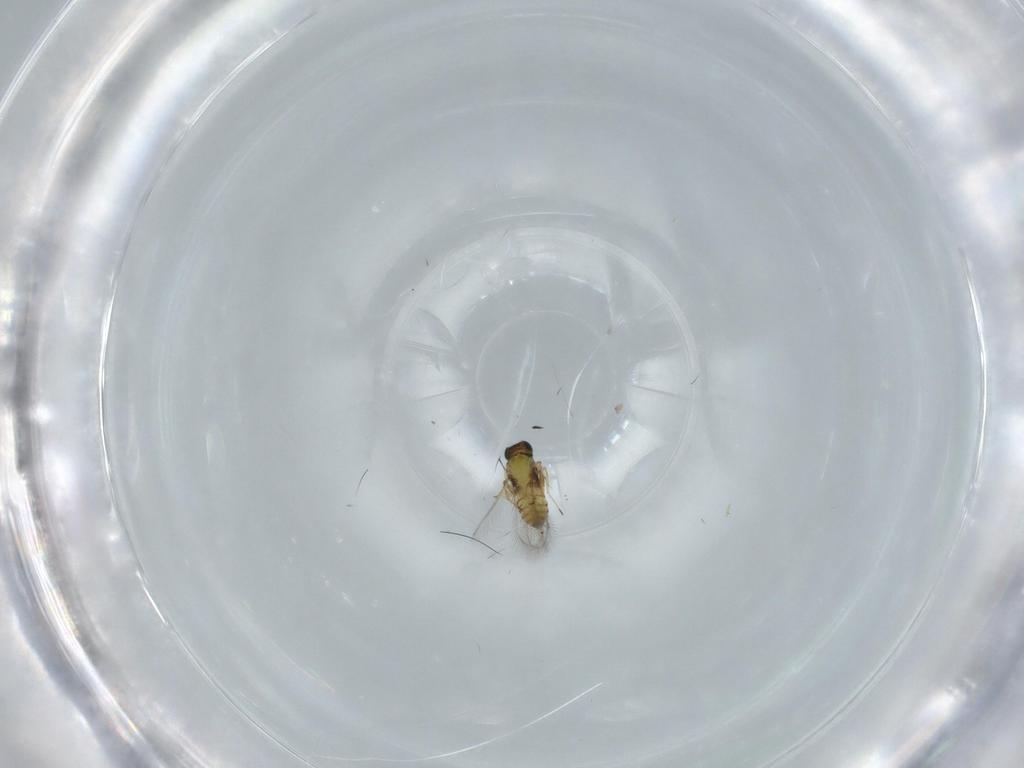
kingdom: Animalia
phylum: Arthropoda
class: Insecta
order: Hymenoptera
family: Trichogrammatidae
